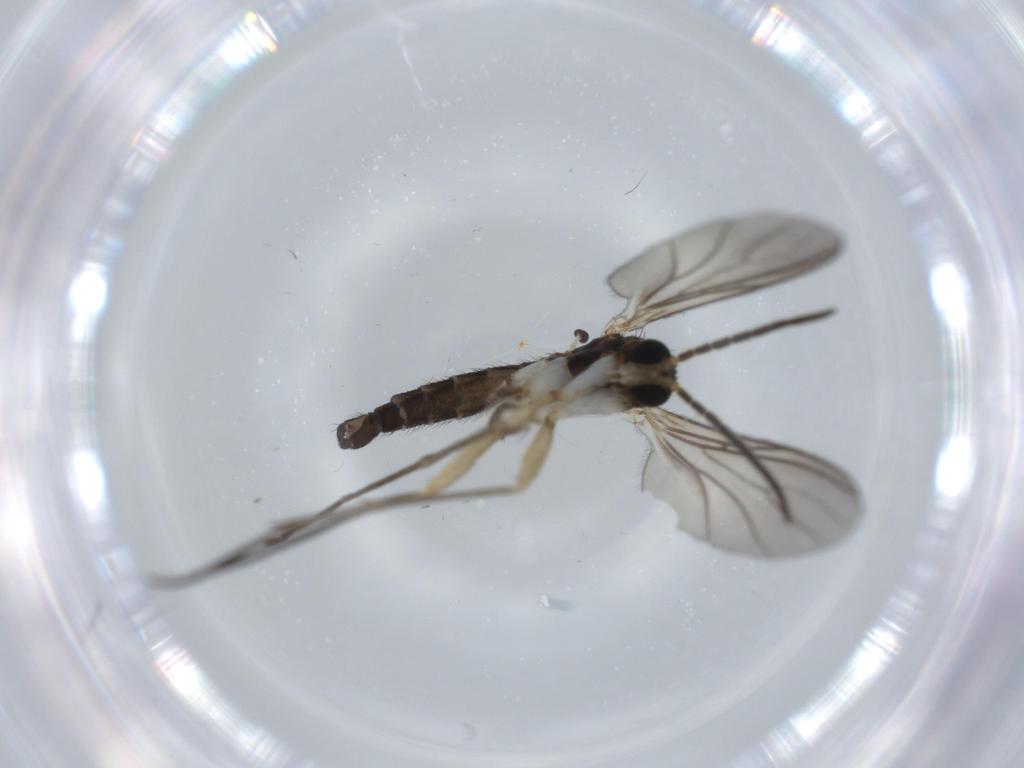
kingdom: Animalia
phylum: Arthropoda
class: Insecta
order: Diptera
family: Sciaridae
